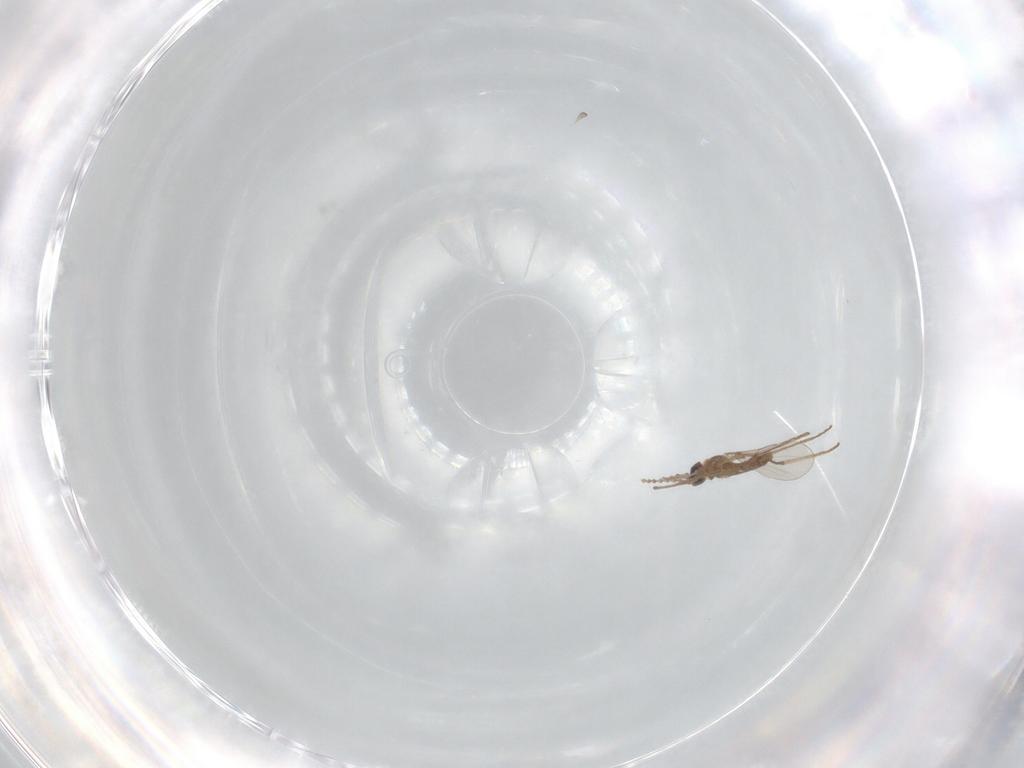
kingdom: Animalia
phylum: Arthropoda
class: Insecta
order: Diptera
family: Cecidomyiidae
